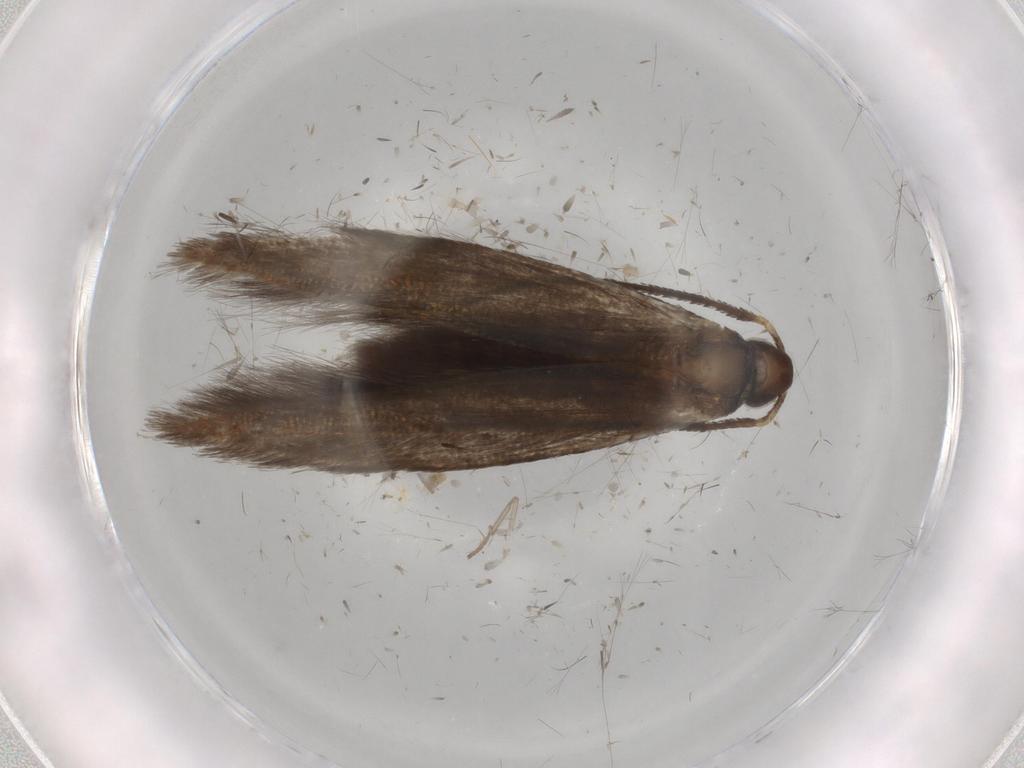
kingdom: Animalia
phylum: Arthropoda
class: Insecta
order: Lepidoptera
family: Coleophoridae
